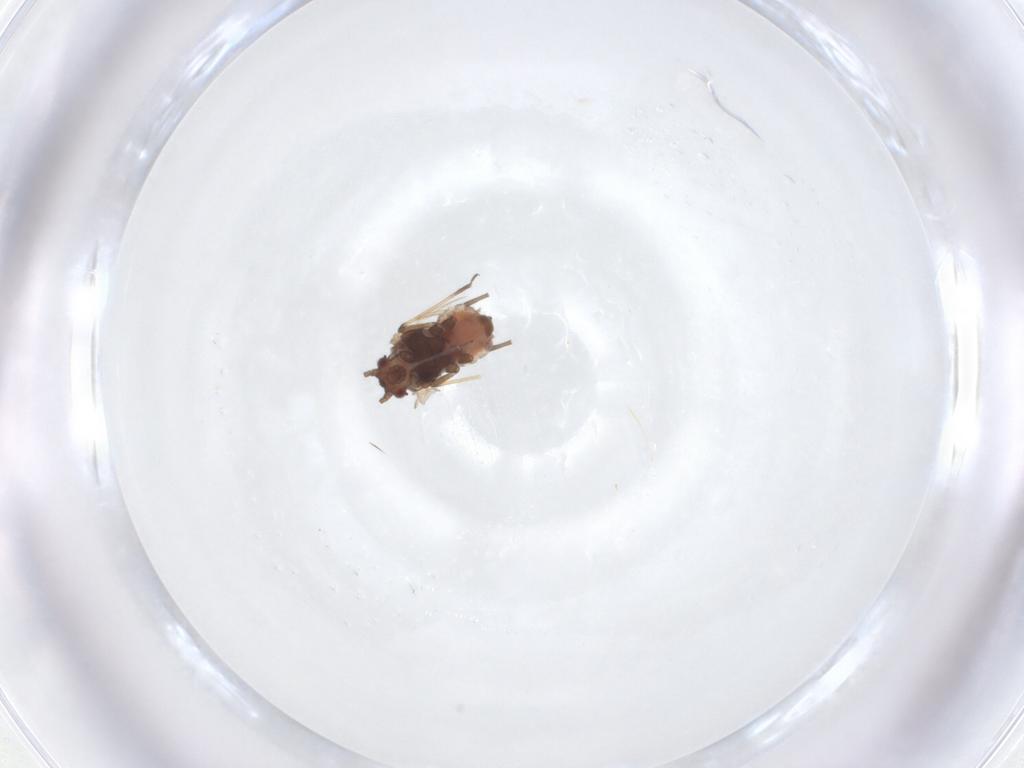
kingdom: Animalia
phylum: Arthropoda
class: Insecta
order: Hemiptera
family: Aphididae
